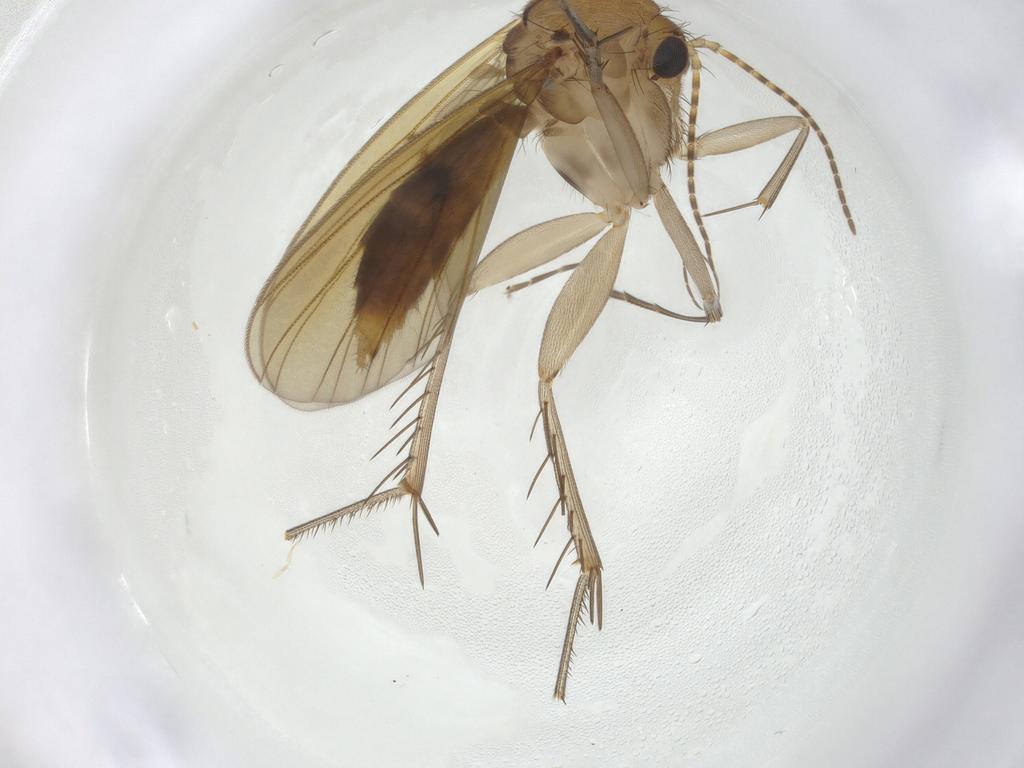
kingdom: Animalia
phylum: Arthropoda
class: Insecta
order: Diptera
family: Mycetophilidae
